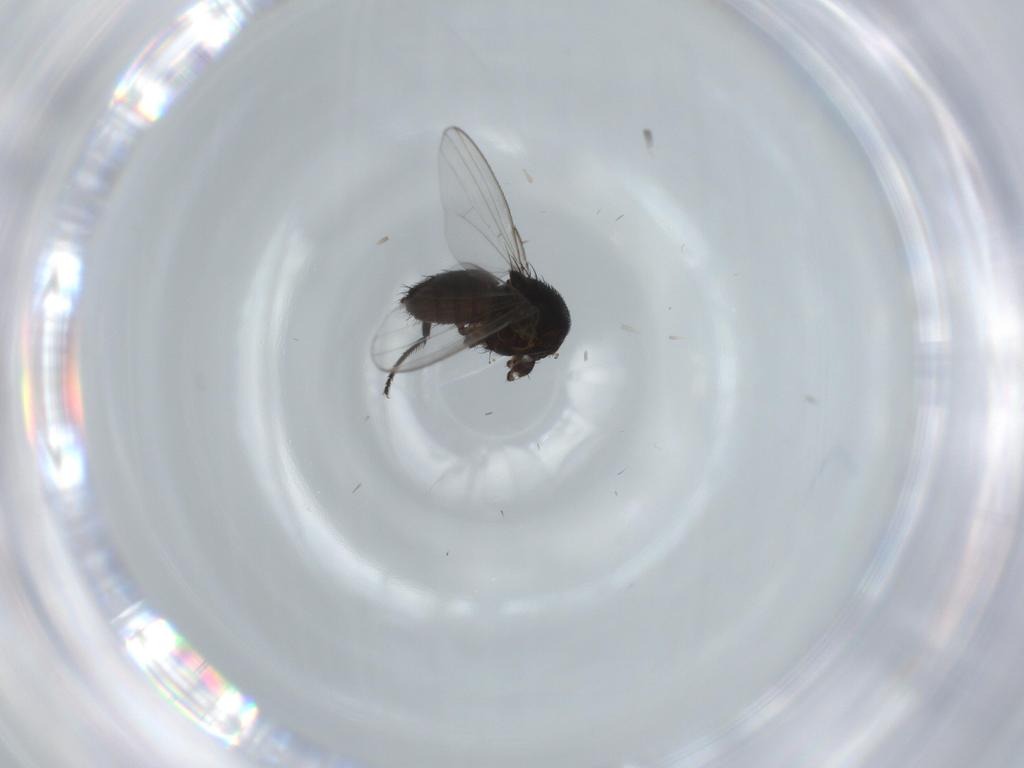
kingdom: Animalia
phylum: Arthropoda
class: Insecta
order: Diptera
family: Milichiidae
